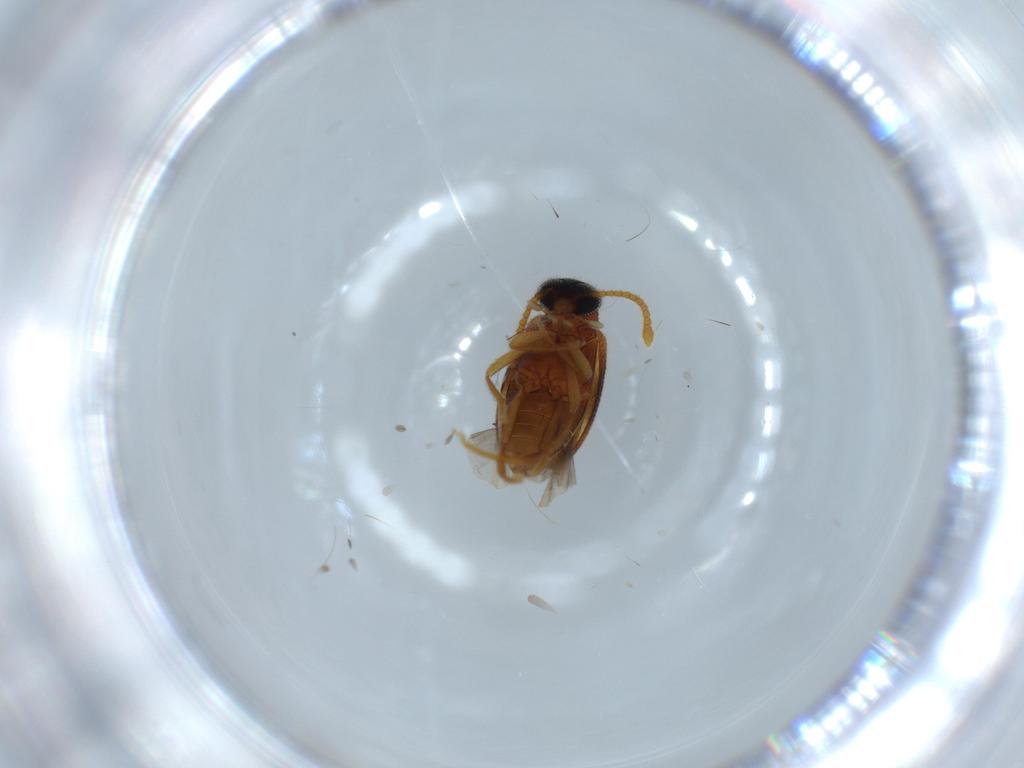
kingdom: Animalia
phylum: Arthropoda
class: Insecta
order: Coleoptera
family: Aderidae
